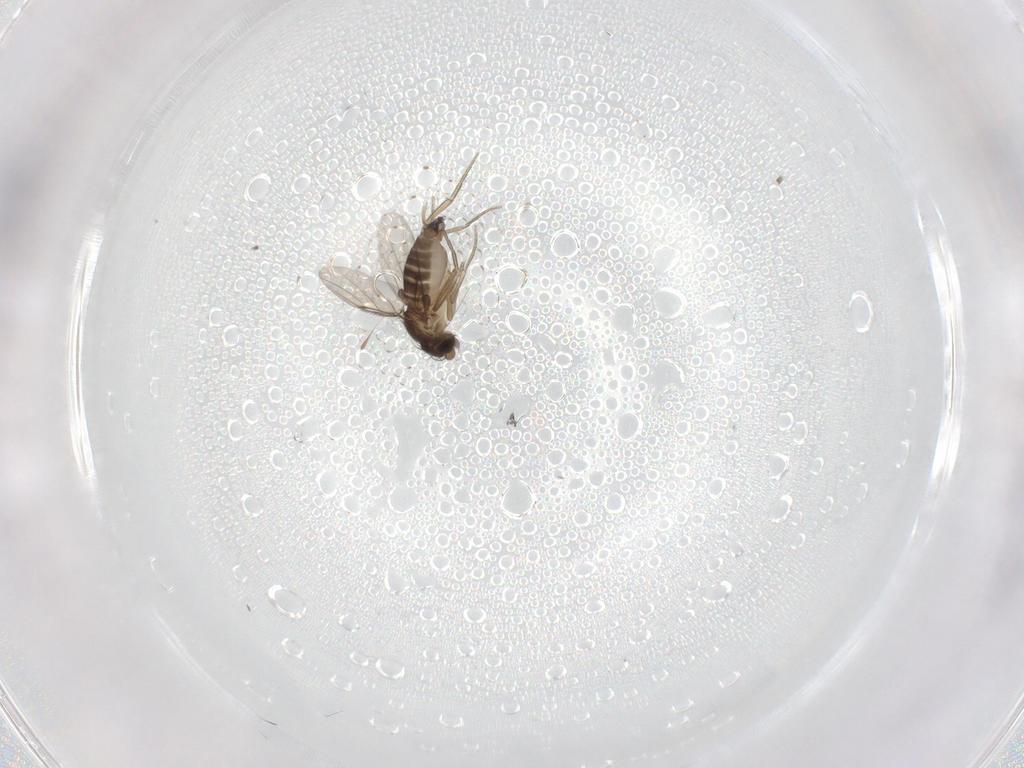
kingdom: Animalia
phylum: Arthropoda
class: Insecta
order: Diptera
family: Phoridae
